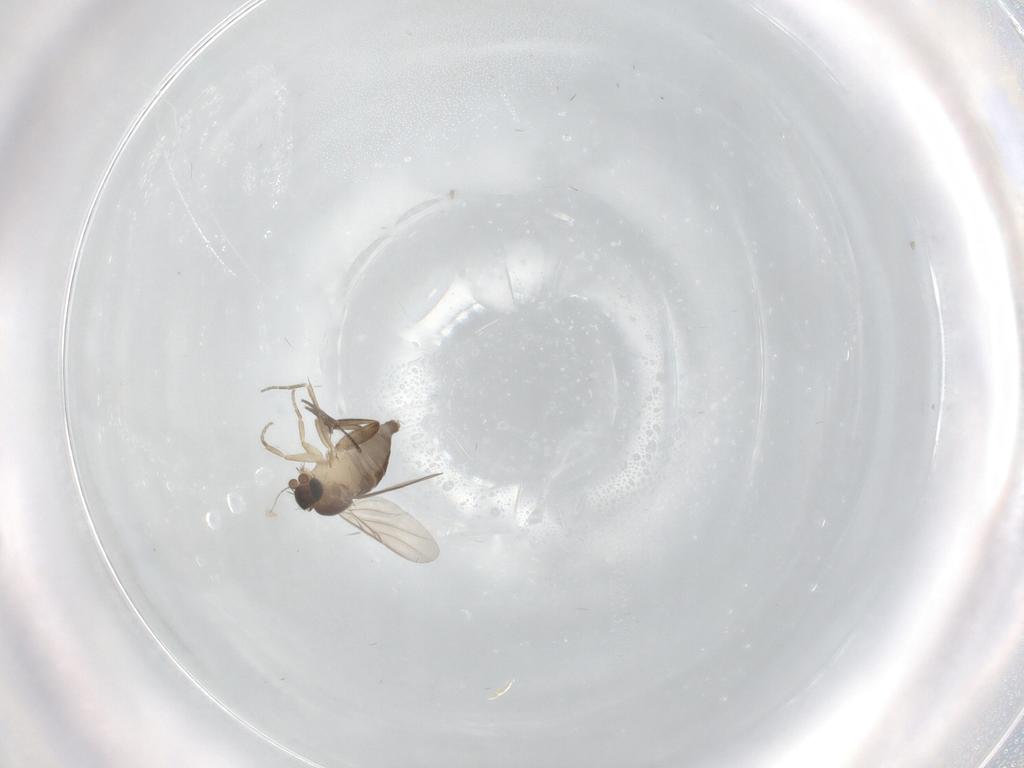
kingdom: Animalia
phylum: Arthropoda
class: Insecta
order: Diptera
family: Phoridae
